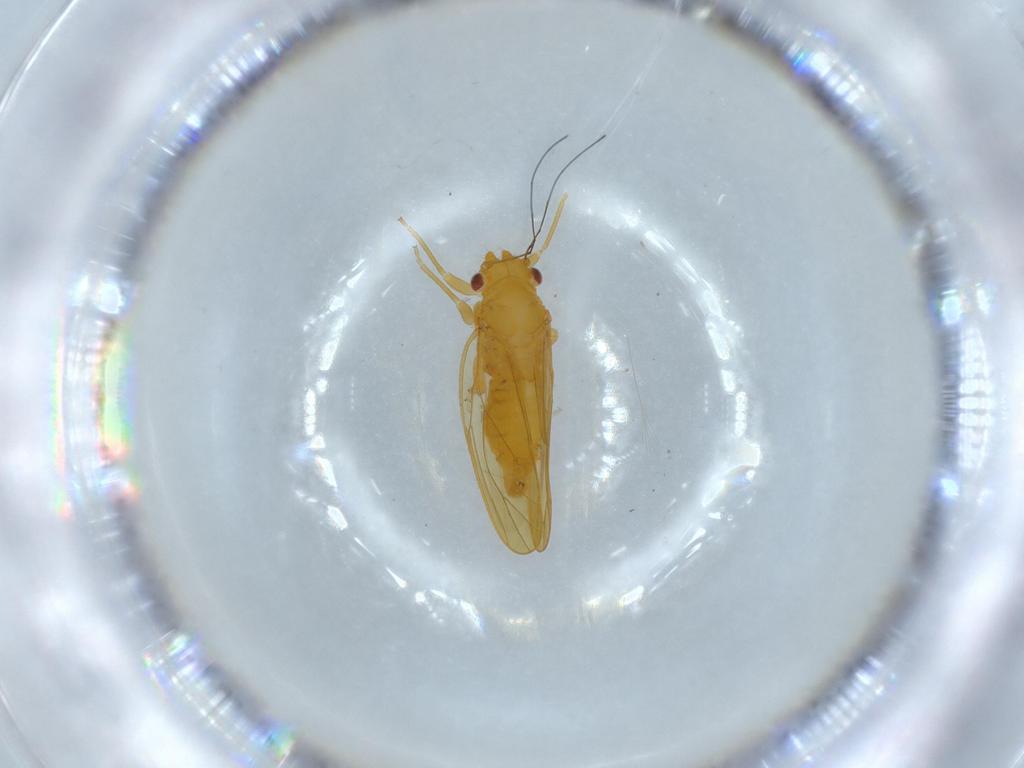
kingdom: Animalia
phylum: Arthropoda
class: Insecta
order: Hemiptera
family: Psyllidae
